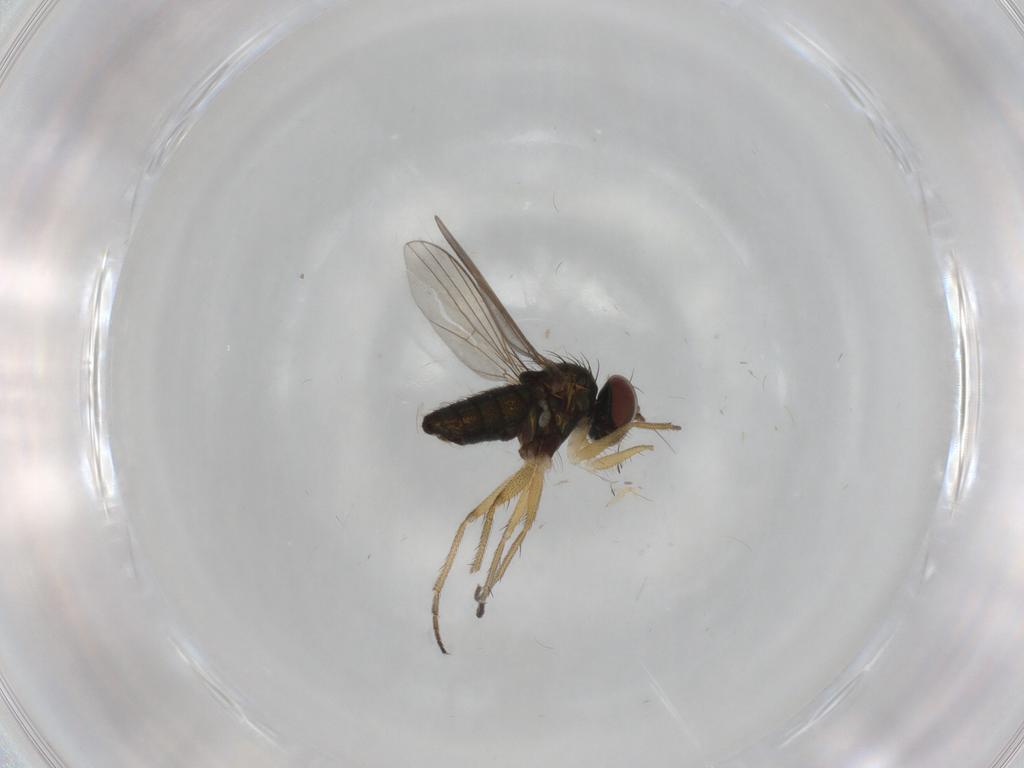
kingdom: Animalia
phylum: Arthropoda
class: Insecta
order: Diptera
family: Dolichopodidae
